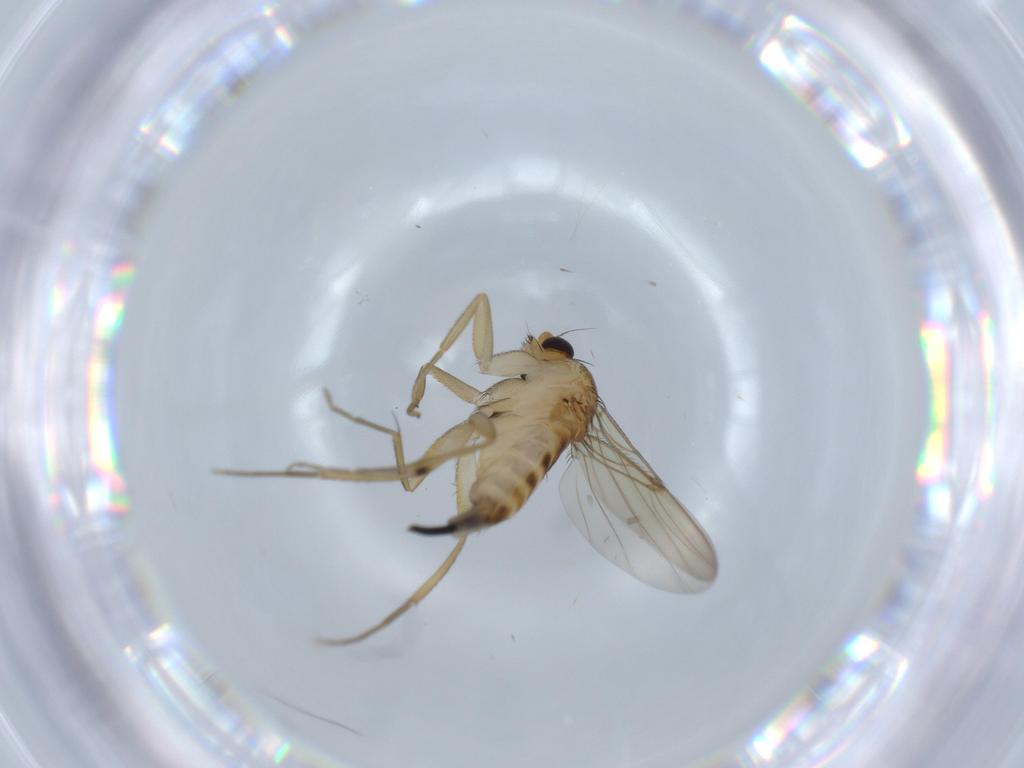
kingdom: Animalia
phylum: Arthropoda
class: Insecta
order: Diptera
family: Phoridae
